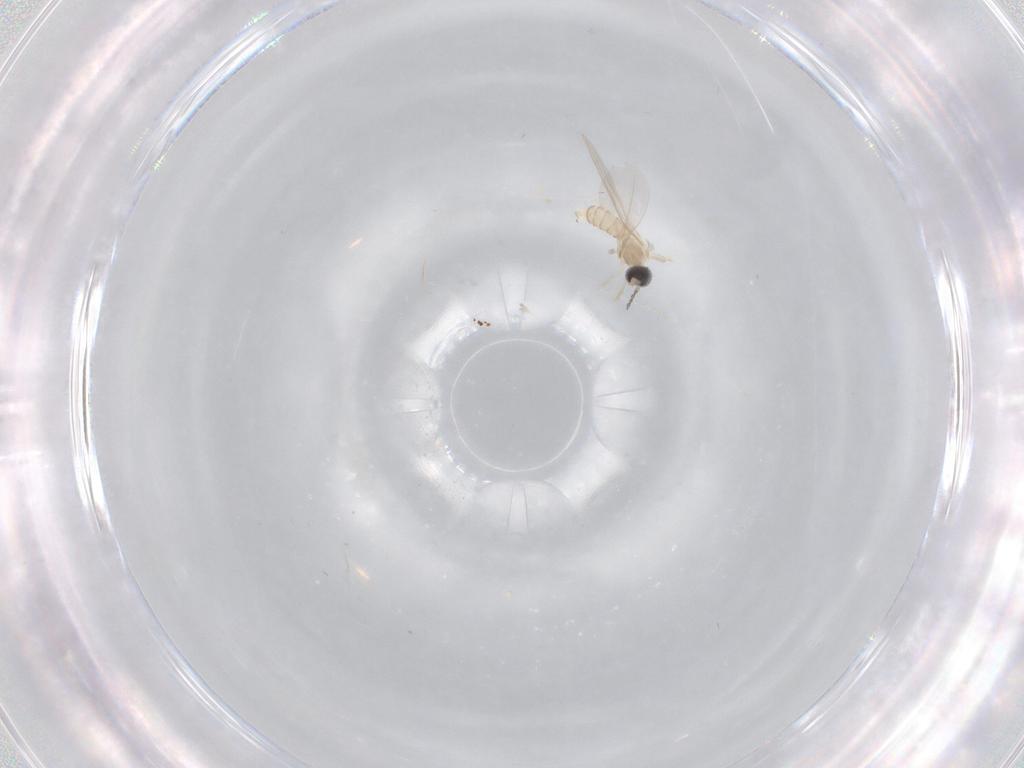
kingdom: Animalia
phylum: Arthropoda
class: Insecta
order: Diptera
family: Cecidomyiidae
